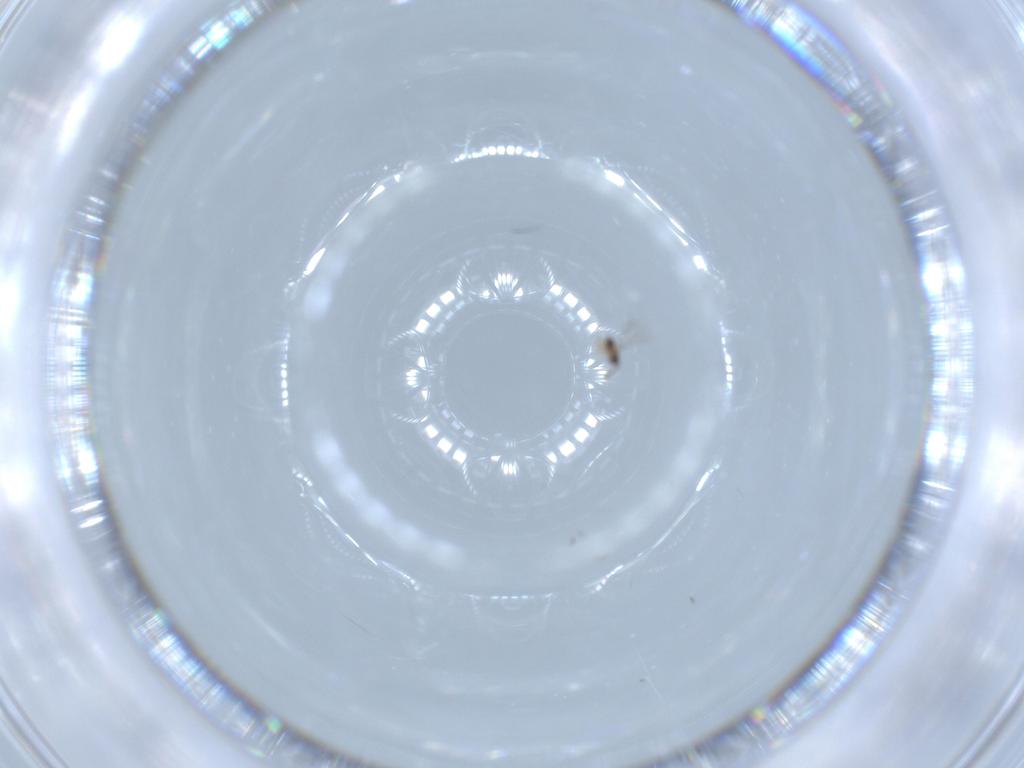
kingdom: Animalia
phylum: Arthropoda
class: Insecta
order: Hymenoptera
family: Mymaridae
